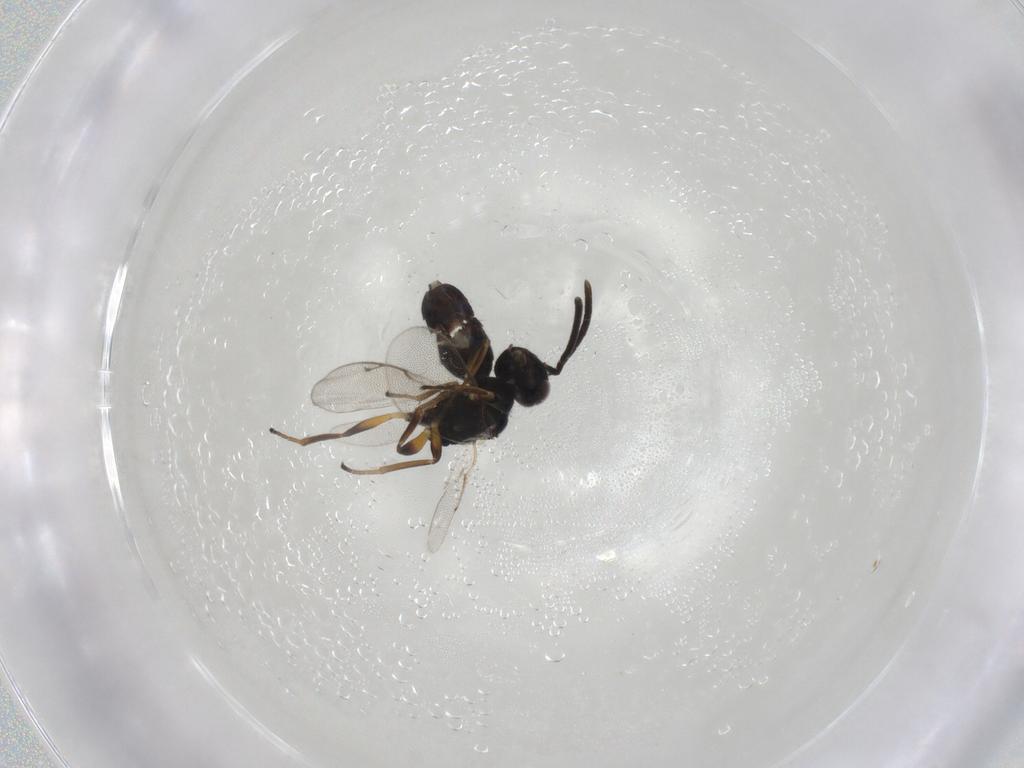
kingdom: Animalia
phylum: Arthropoda
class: Insecta
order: Hymenoptera
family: Eupelmidae
